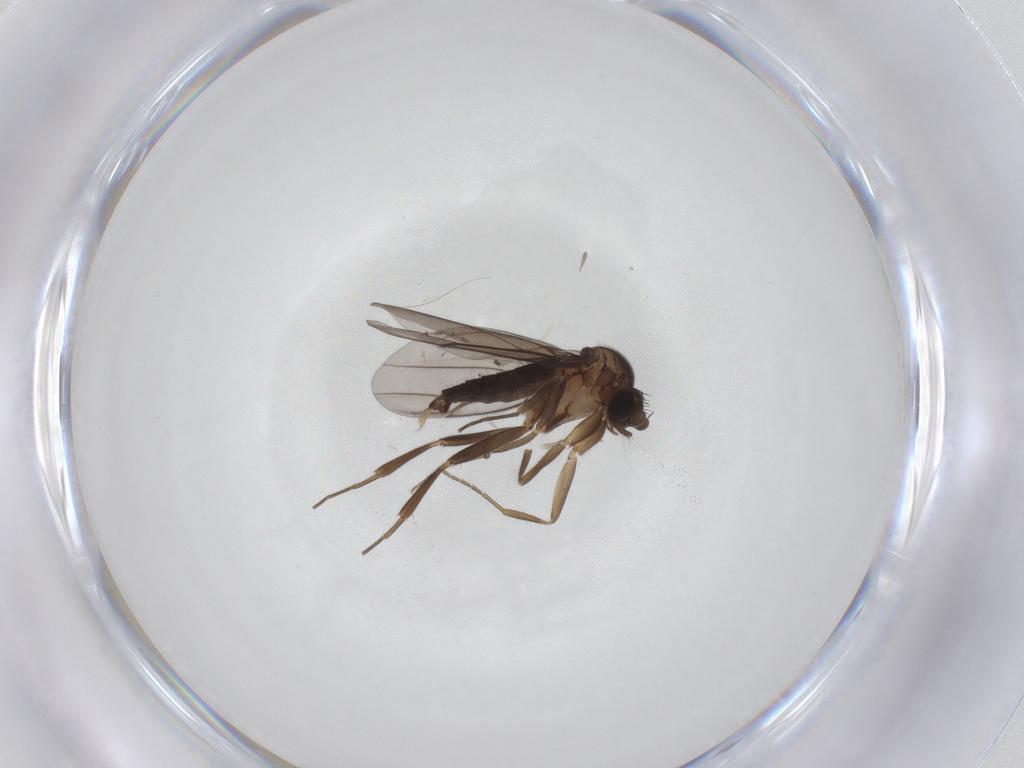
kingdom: Animalia
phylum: Arthropoda
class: Insecta
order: Diptera
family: Sciaridae
